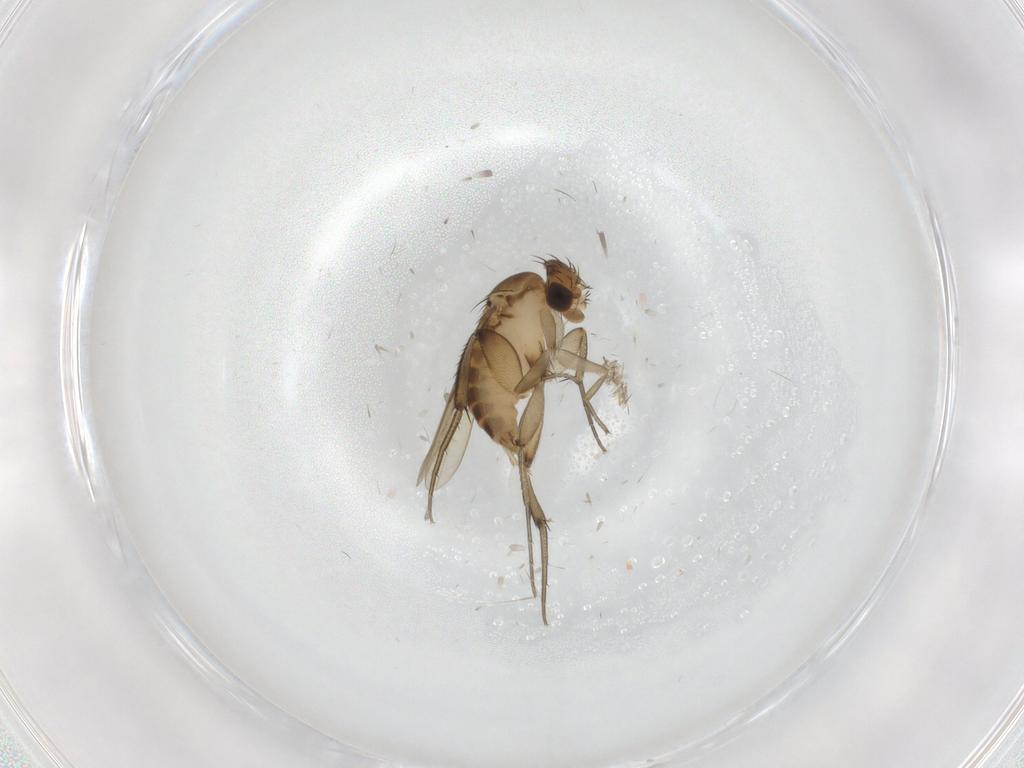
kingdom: Animalia
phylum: Arthropoda
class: Insecta
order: Diptera
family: Phoridae
